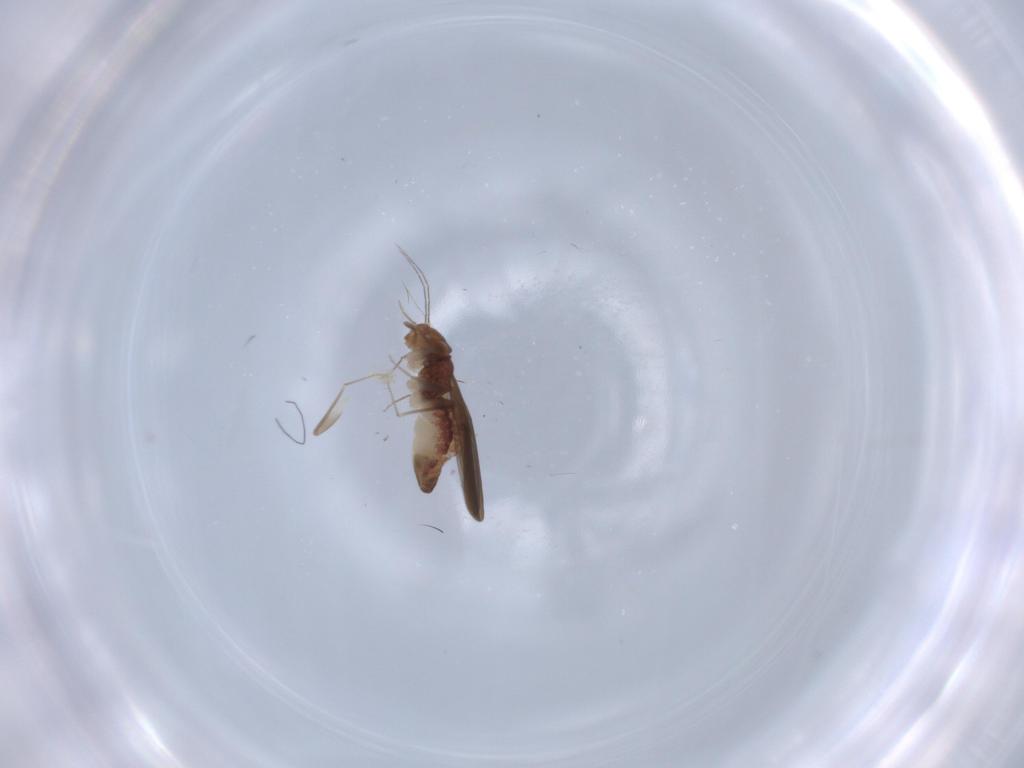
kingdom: Animalia
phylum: Arthropoda
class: Insecta
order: Psocodea
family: Lepidopsocidae
